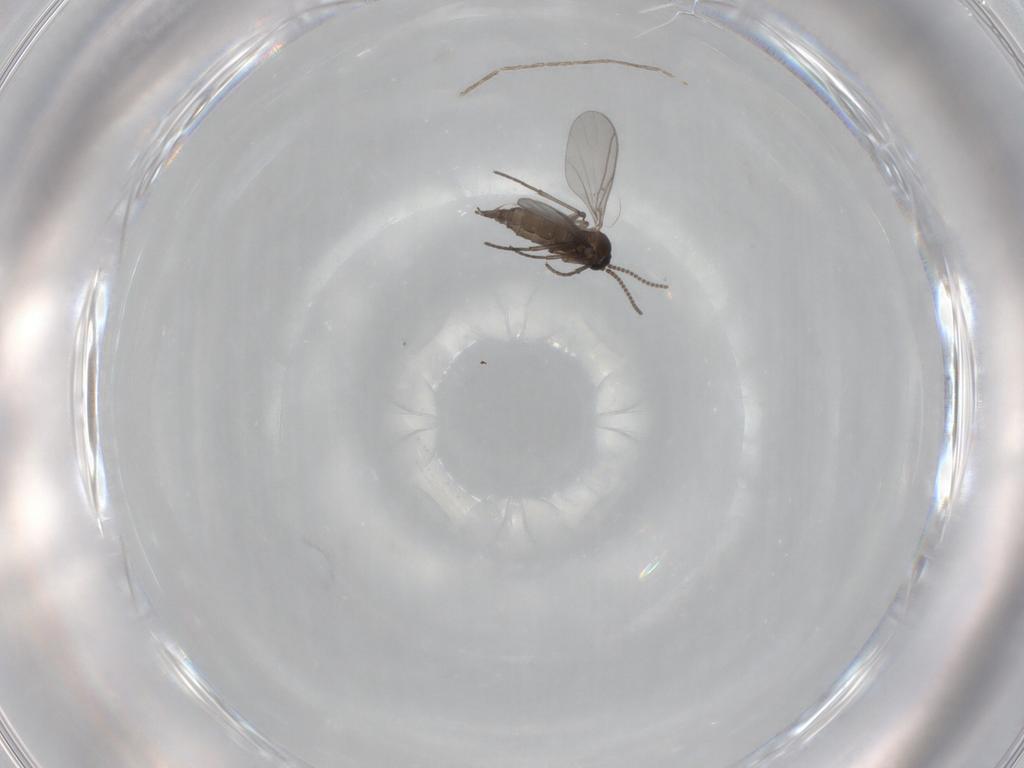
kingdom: Animalia
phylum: Arthropoda
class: Insecta
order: Diptera
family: Cecidomyiidae
